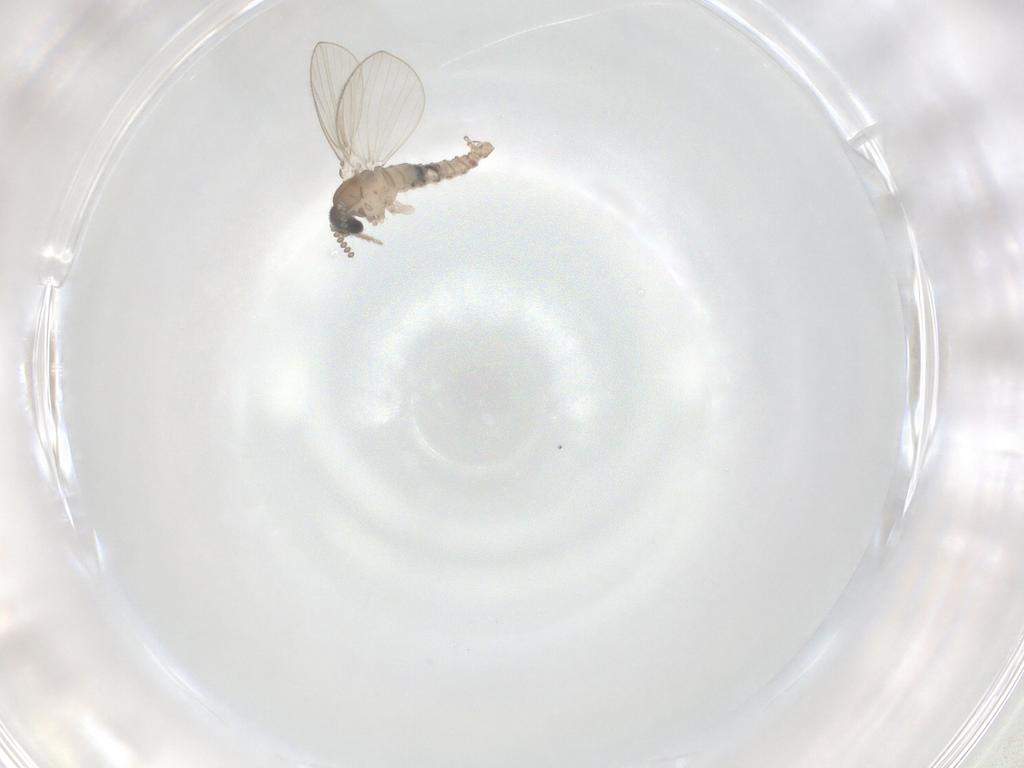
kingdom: Animalia
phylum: Arthropoda
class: Insecta
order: Diptera
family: Psychodidae
